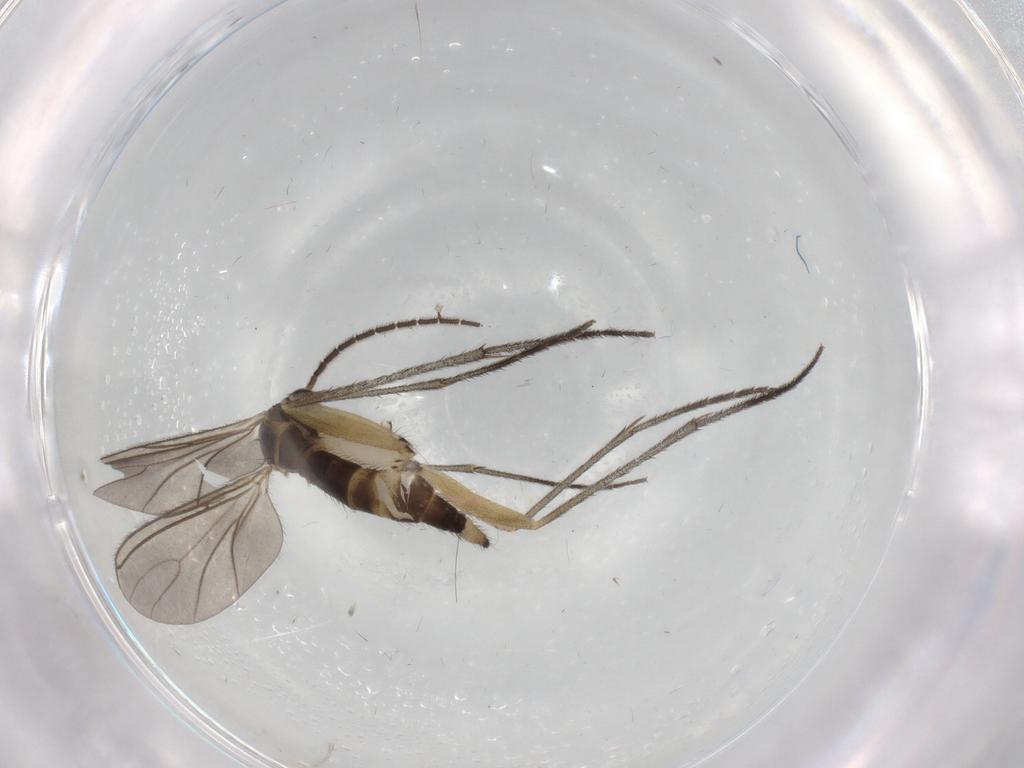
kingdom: Animalia
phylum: Arthropoda
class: Insecta
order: Diptera
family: Sciaridae
